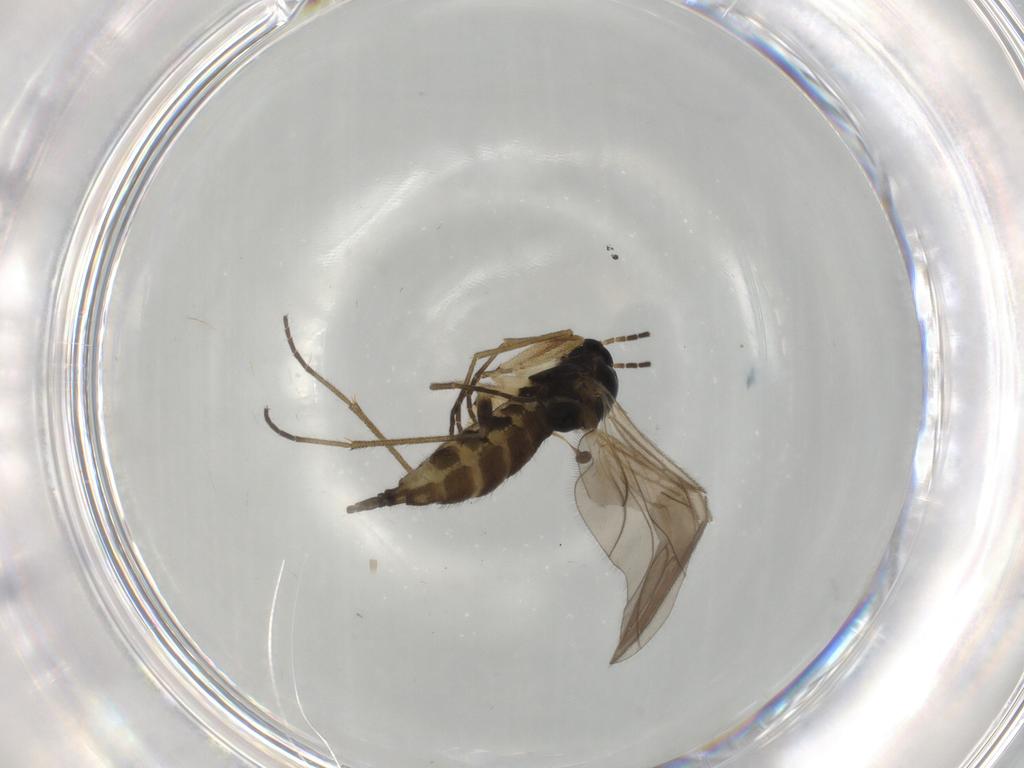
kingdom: Animalia
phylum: Arthropoda
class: Insecta
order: Diptera
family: Sciaridae
